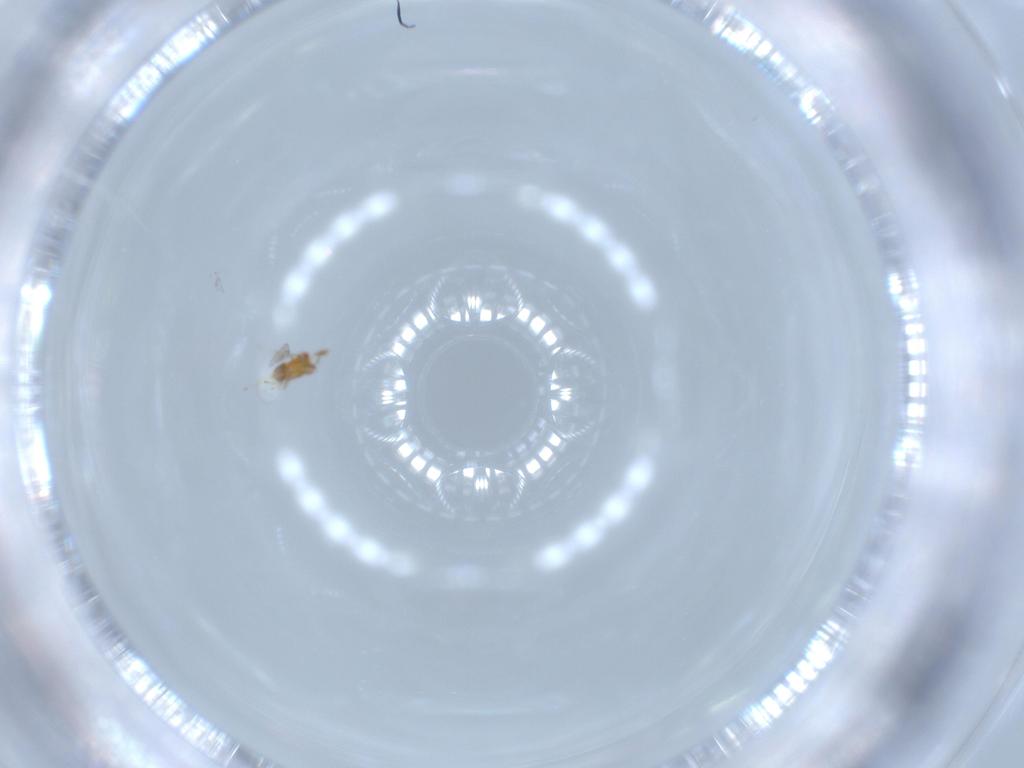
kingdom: Animalia
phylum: Arthropoda
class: Insecta
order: Hymenoptera
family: Trichogrammatidae
